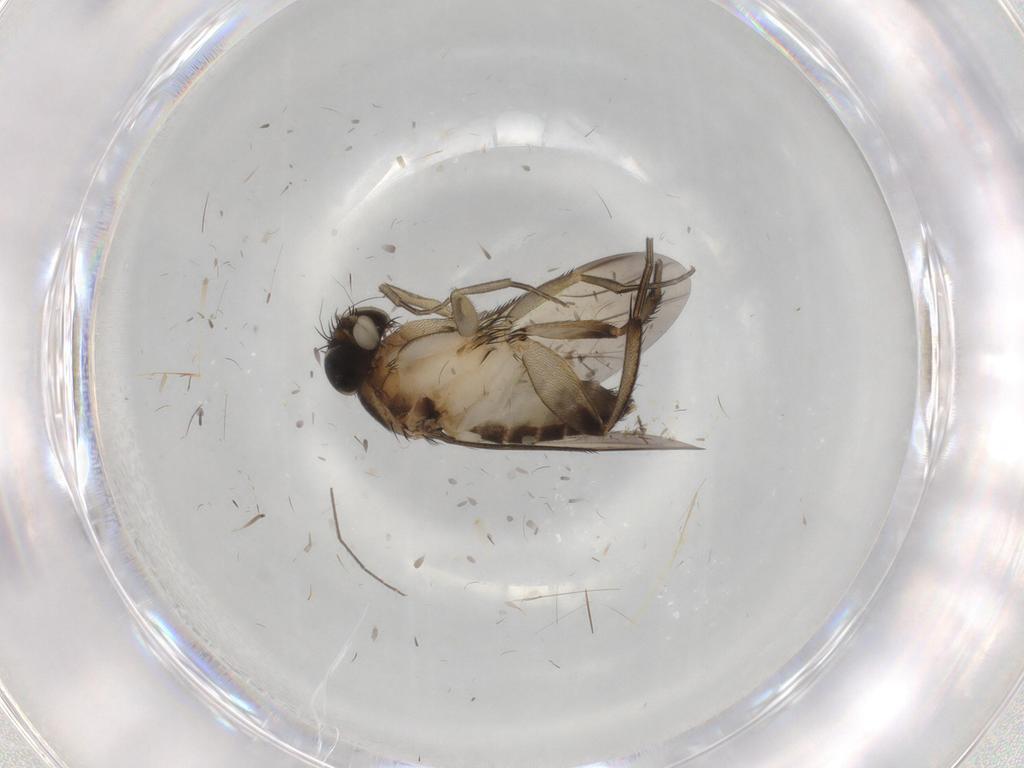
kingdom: Animalia
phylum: Arthropoda
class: Insecta
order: Diptera
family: Phoridae
